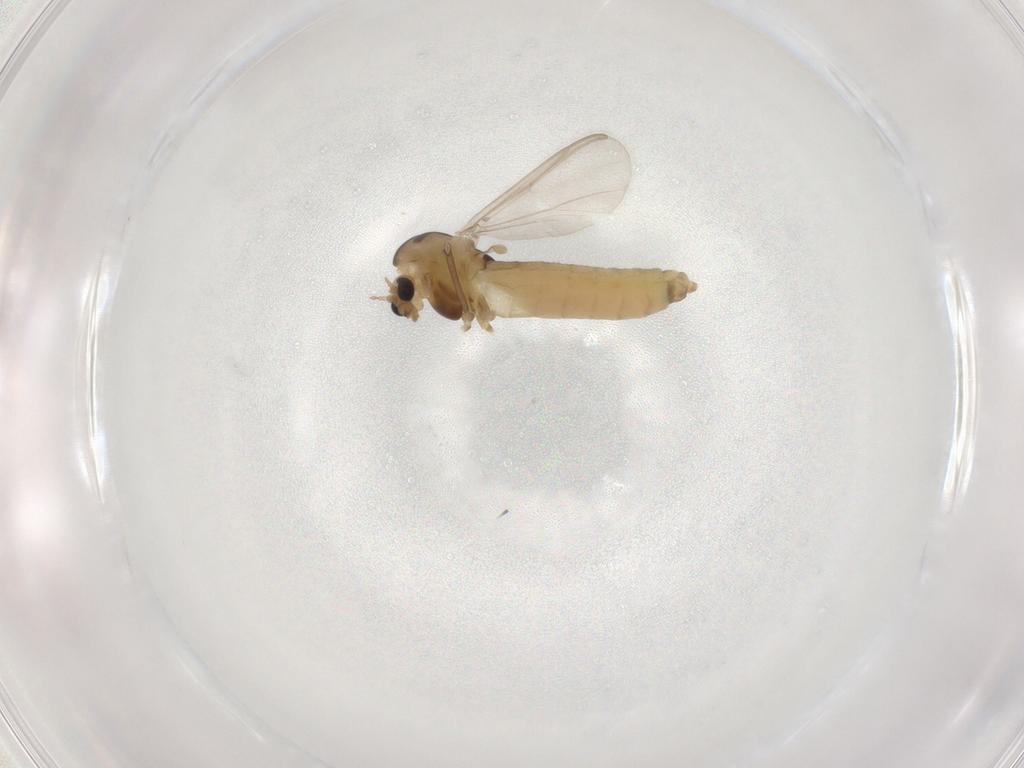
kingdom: Animalia
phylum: Arthropoda
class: Insecta
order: Diptera
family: Chironomidae
